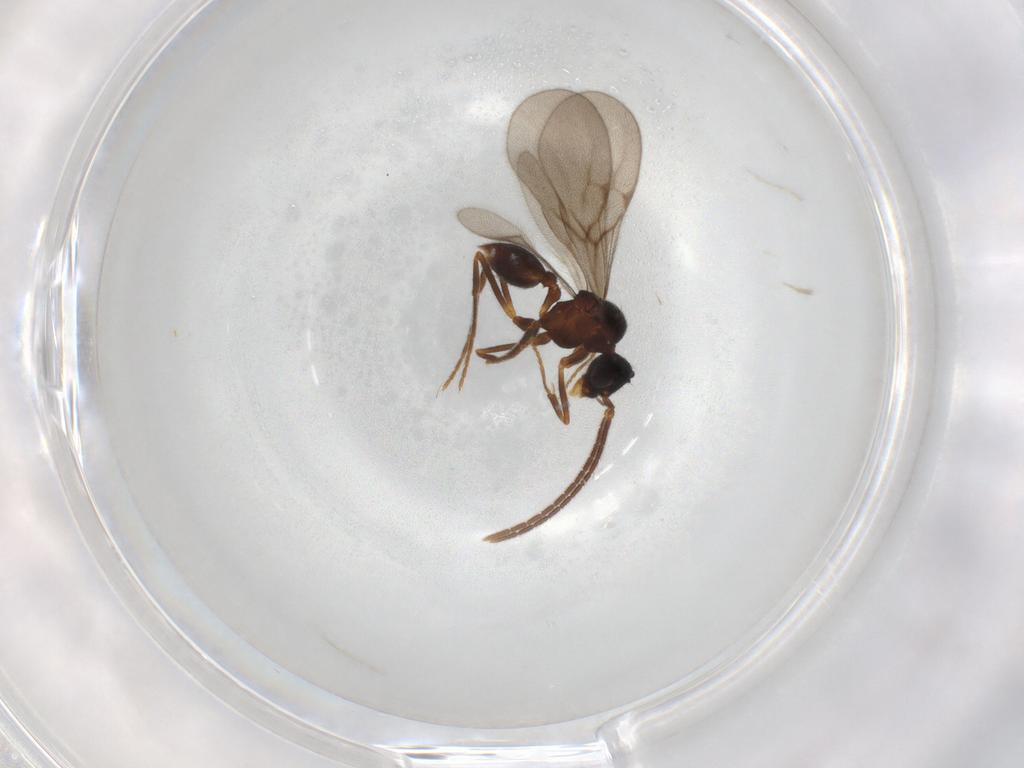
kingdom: Animalia
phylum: Arthropoda
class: Insecta
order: Hymenoptera
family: Formicidae
